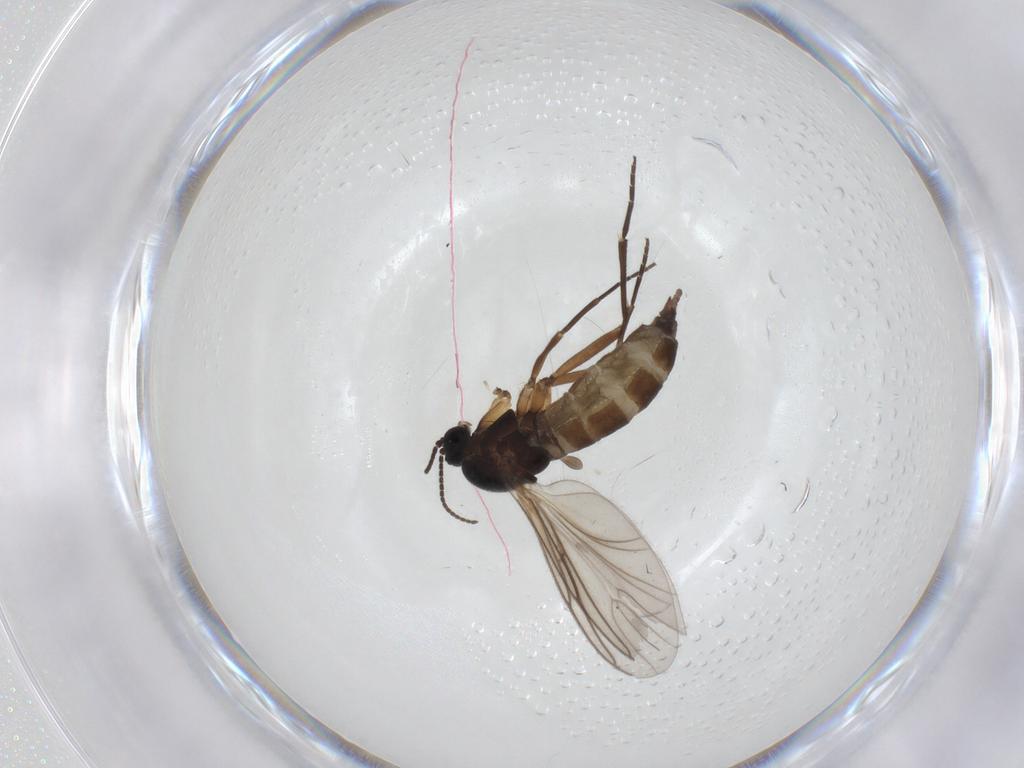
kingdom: Animalia
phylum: Arthropoda
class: Insecta
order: Diptera
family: Sciaridae
